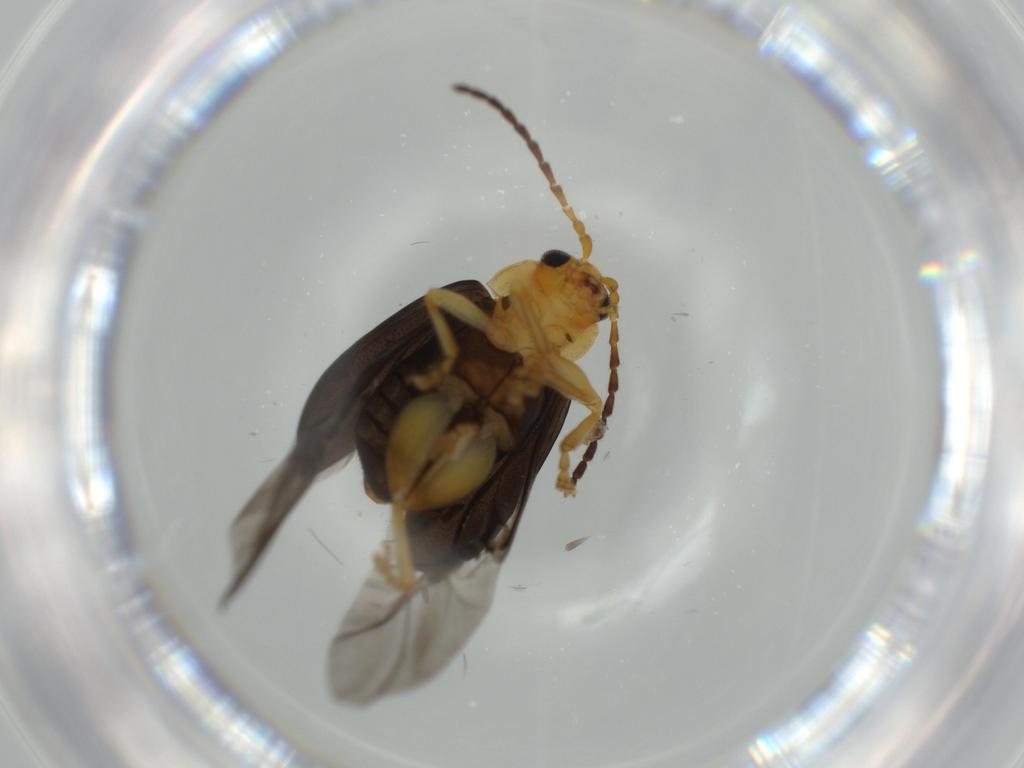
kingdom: Animalia
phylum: Arthropoda
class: Insecta
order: Coleoptera
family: Chrysomelidae
